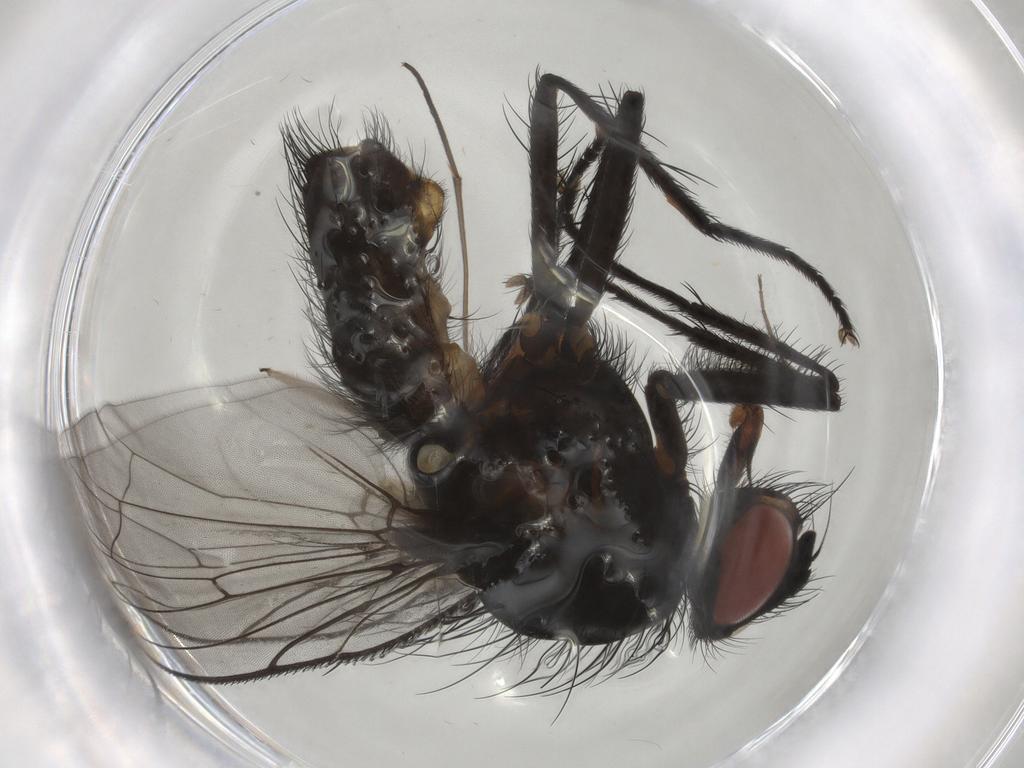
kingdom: Animalia
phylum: Arthropoda
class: Insecta
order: Diptera
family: Anthomyiidae
